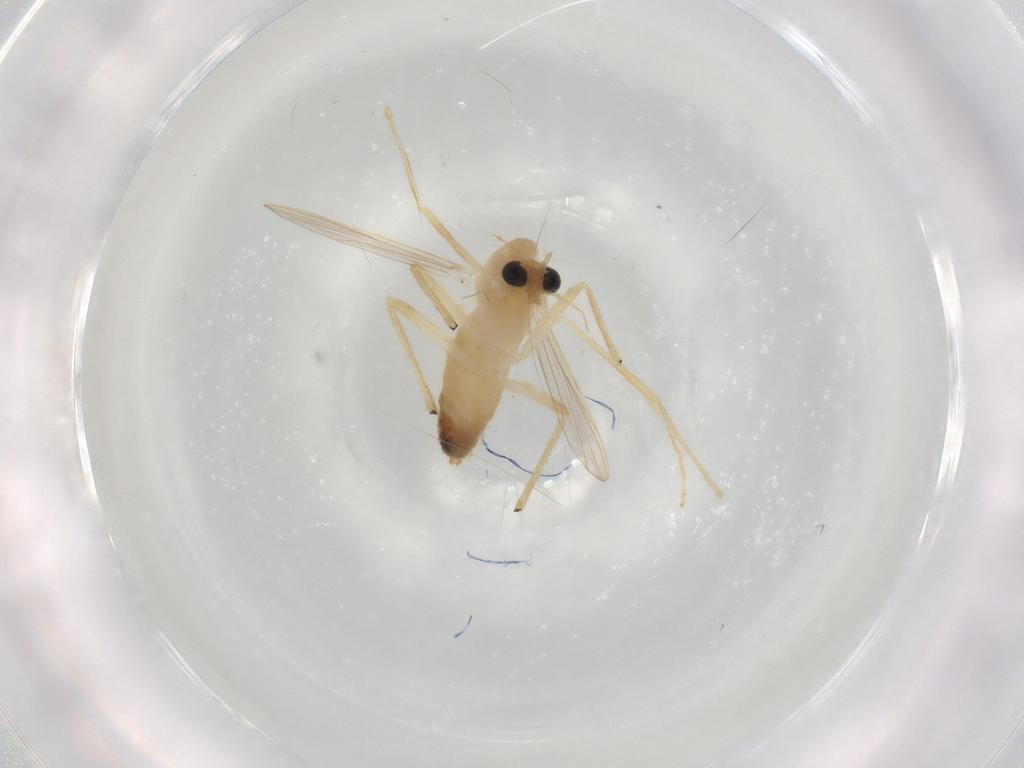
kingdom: Animalia
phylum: Arthropoda
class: Insecta
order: Diptera
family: Chironomidae
